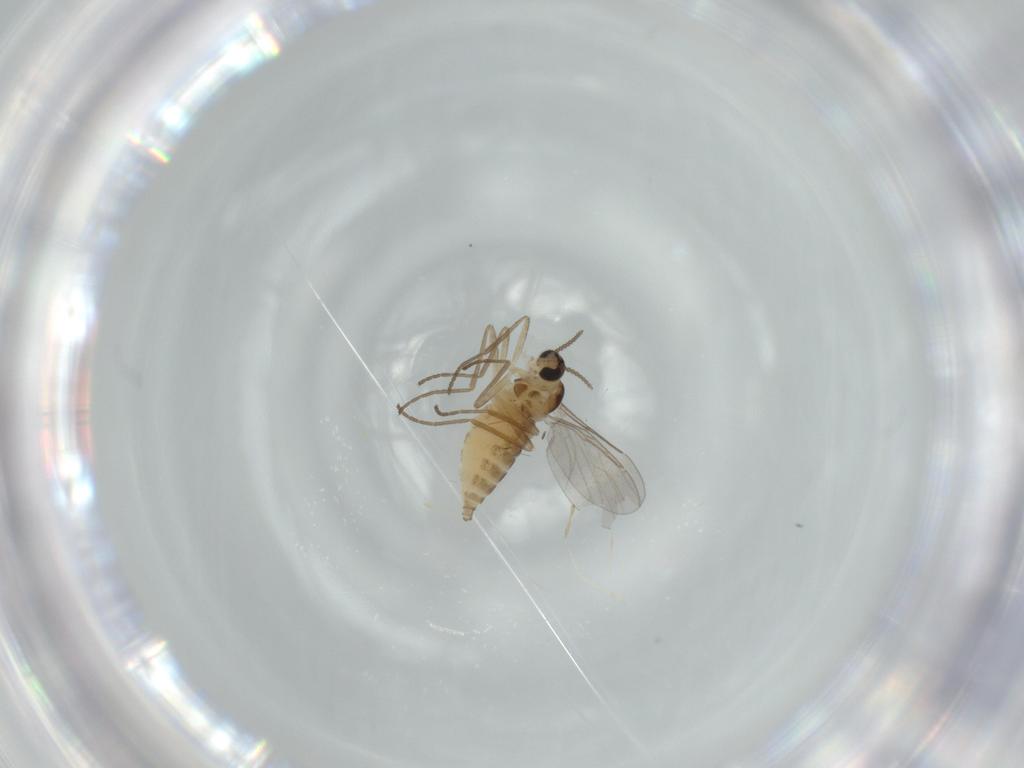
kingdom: Animalia
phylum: Arthropoda
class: Insecta
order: Diptera
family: Cecidomyiidae
